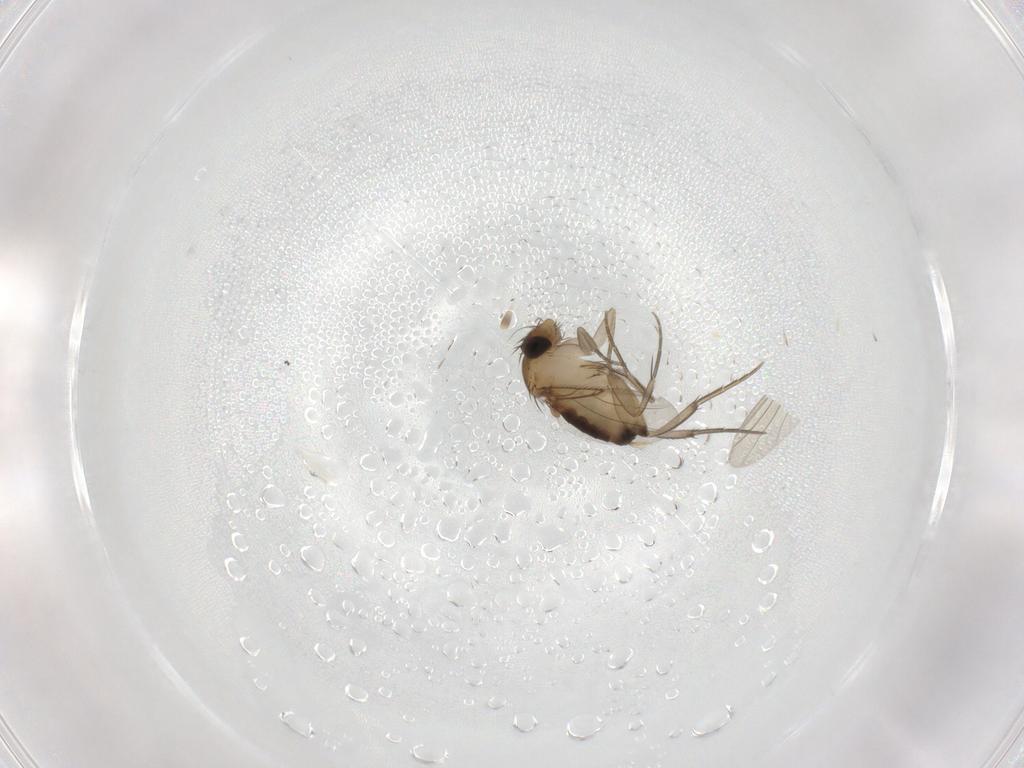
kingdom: Animalia
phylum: Arthropoda
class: Insecta
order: Diptera
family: Phoridae
